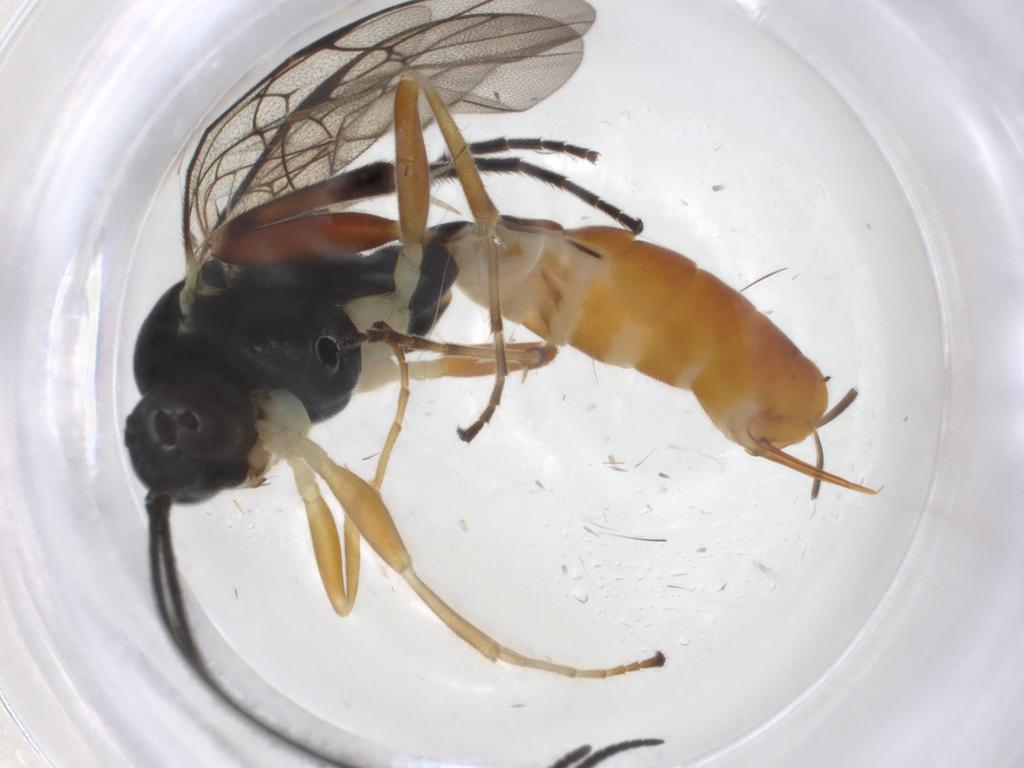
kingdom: Animalia
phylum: Arthropoda
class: Insecta
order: Hymenoptera
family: Ichneumonidae
